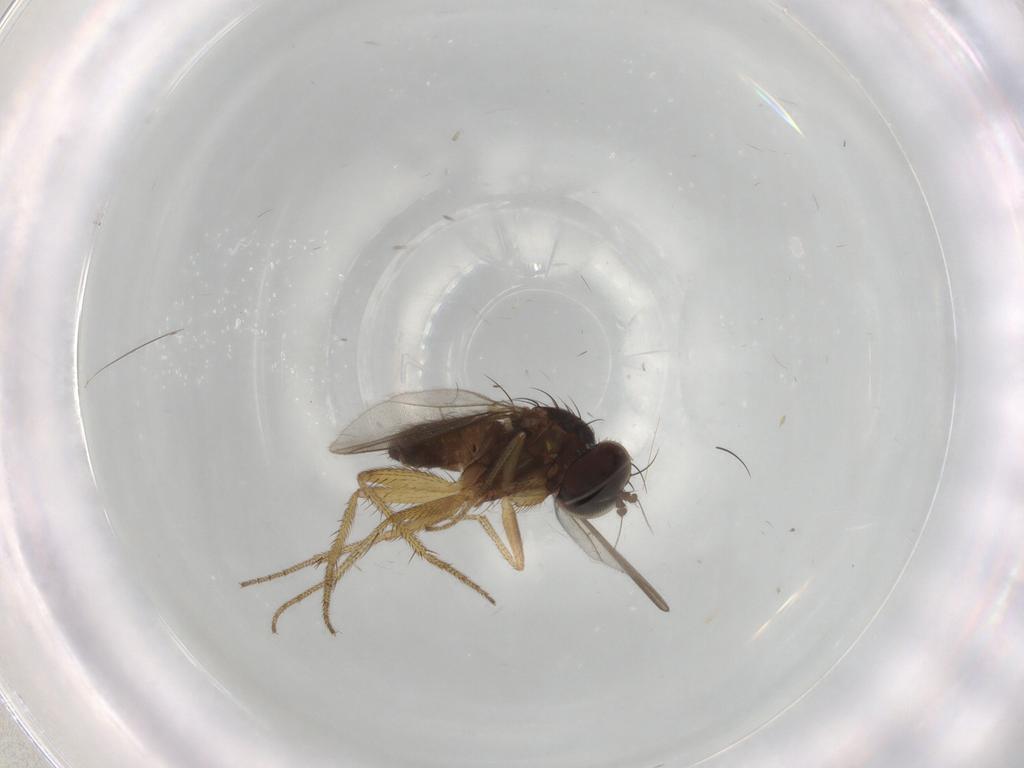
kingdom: Animalia
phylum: Arthropoda
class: Insecta
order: Diptera
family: Dolichopodidae
